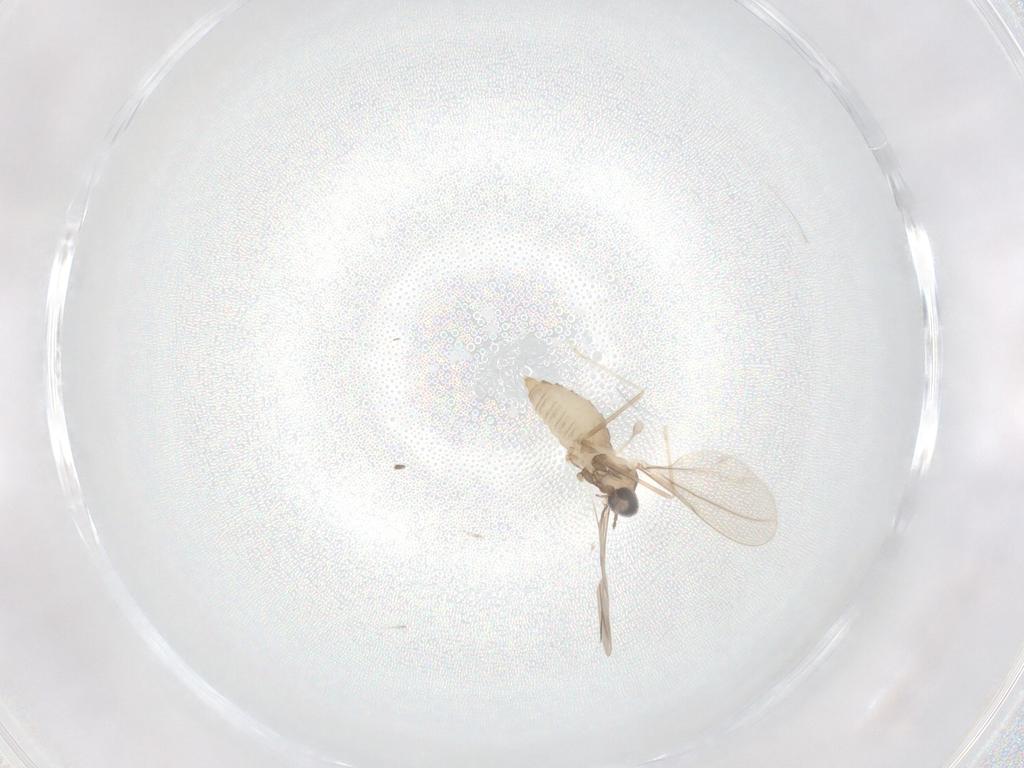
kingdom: Animalia
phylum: Arthropoda
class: Insecta
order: Diptera
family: Cecidomyiidae
